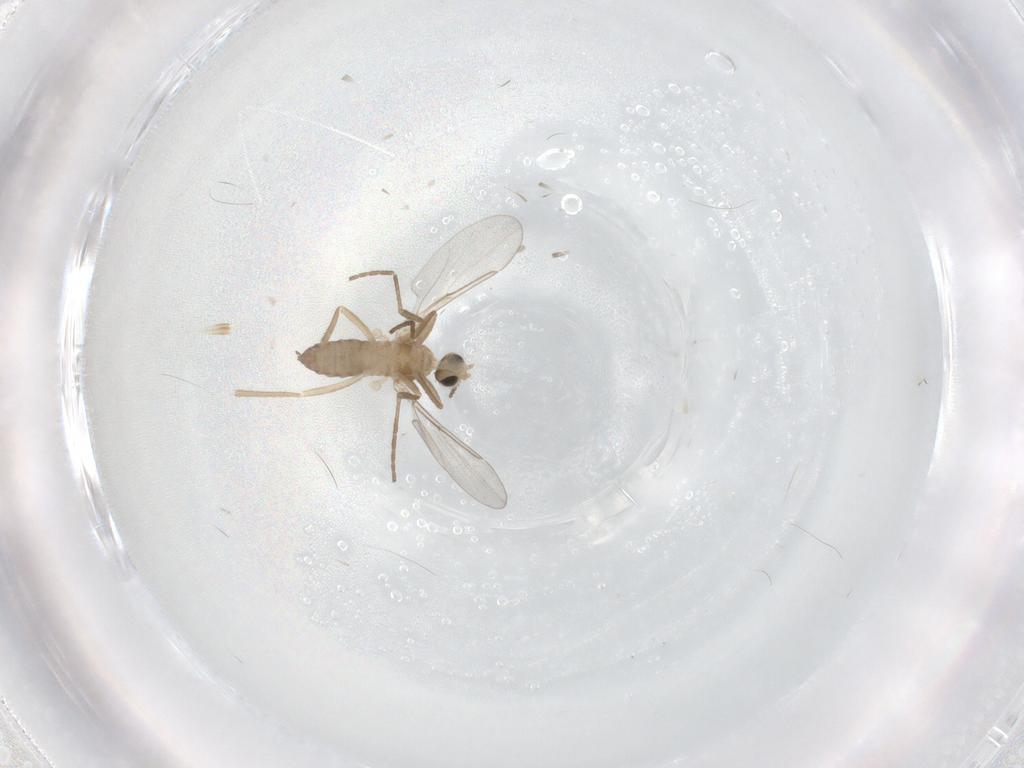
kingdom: Animalia
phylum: Arthropoda
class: Insecta
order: Diptera
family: Cecidomyiidae
